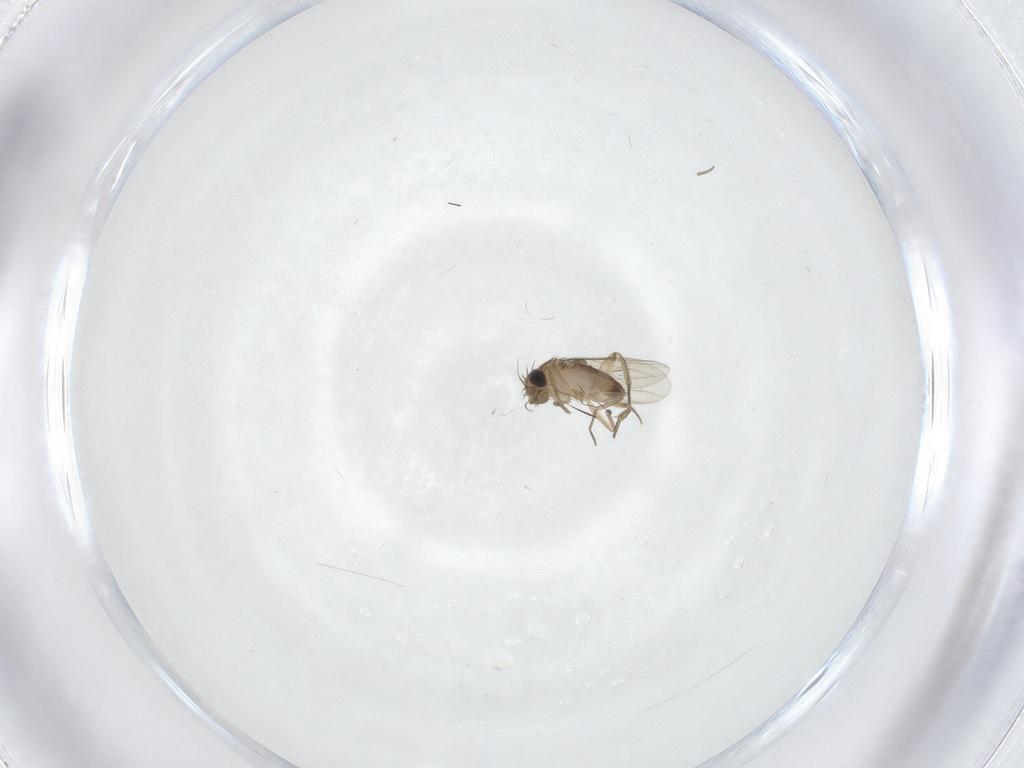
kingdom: Animalia
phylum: Arthropoda
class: Insecta
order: Diptera
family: Phoridae
